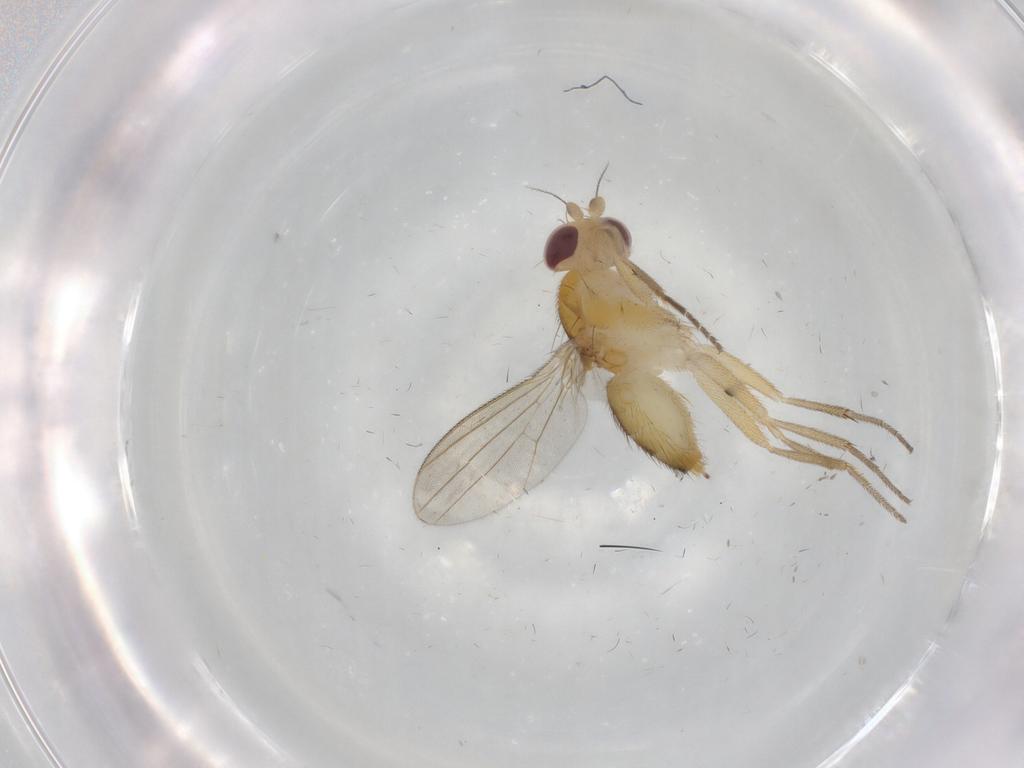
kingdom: Animalia
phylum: Arthropoda
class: Insecta
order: Diptera
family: Clusiidae
